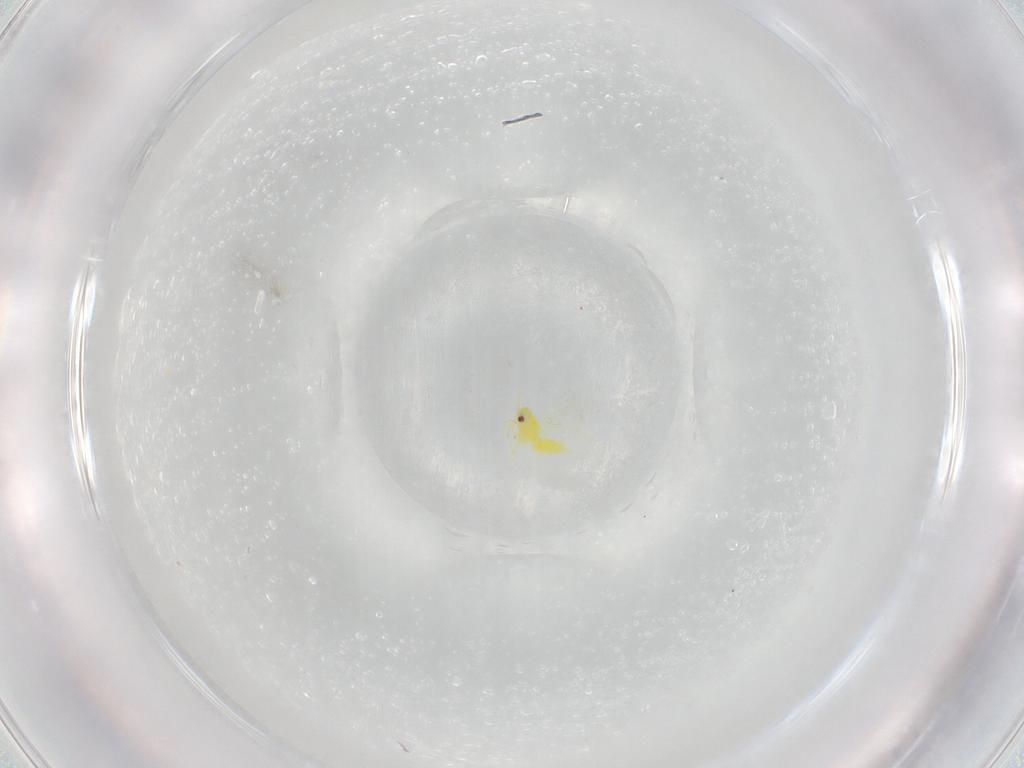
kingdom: Animalia
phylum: Arthropoda
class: Insecta
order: Hemiptera
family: Aleyrodidae
